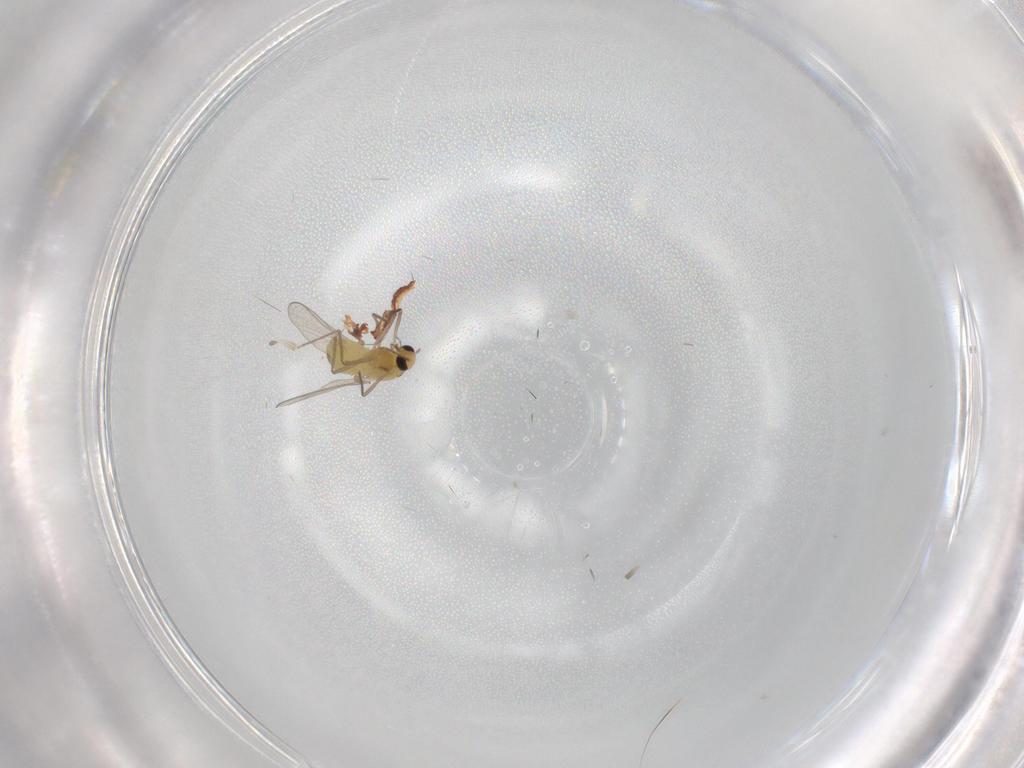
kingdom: Animalia
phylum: Arthropoda
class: Insecta
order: Diptera
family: Chironomidae
